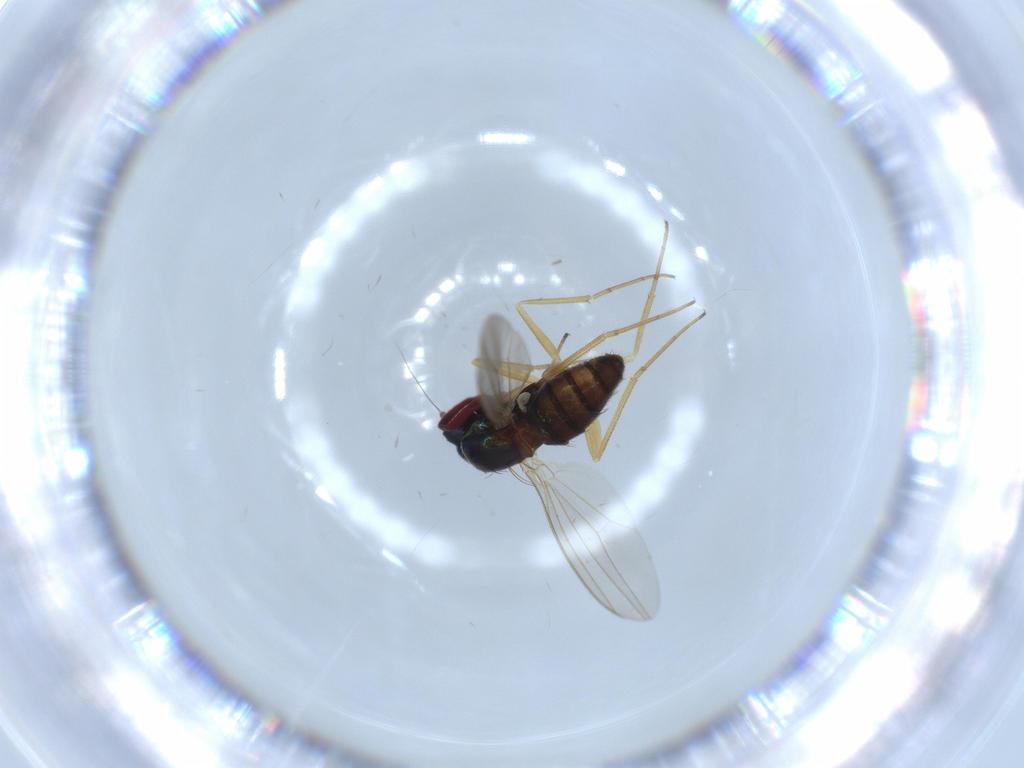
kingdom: Animalia
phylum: Arthropoda
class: Insecta
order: Diptera
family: Dolichopodidae
